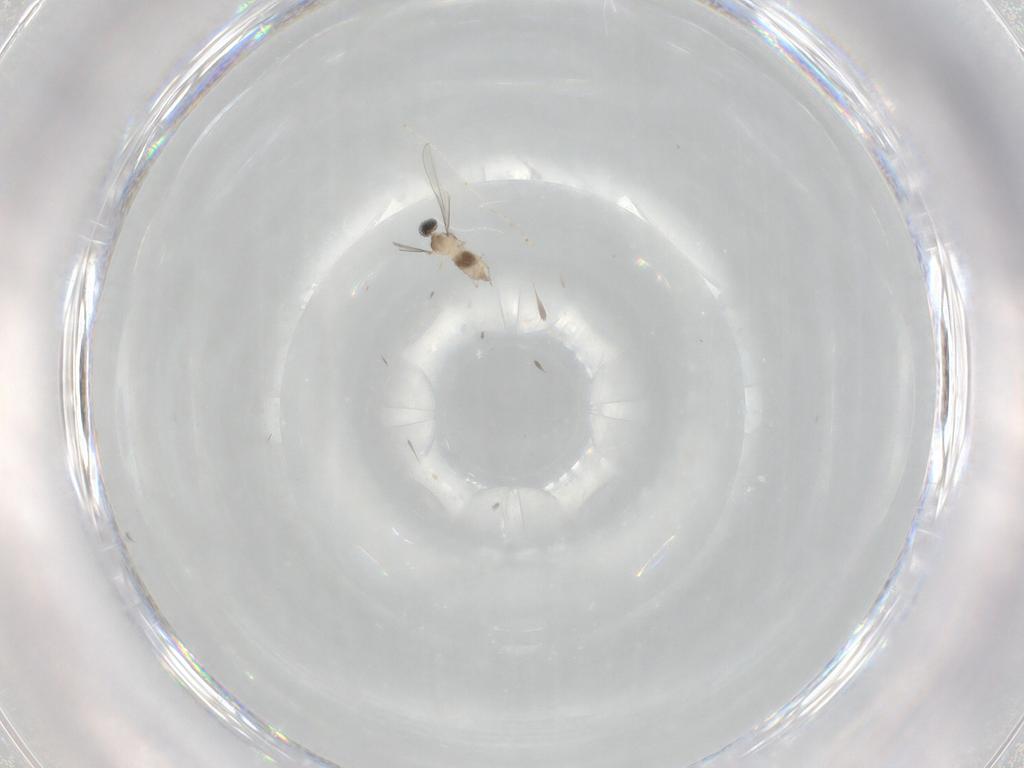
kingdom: Animalia
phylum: Arthropoda
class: Insecta
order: Diptera
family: Cecidomyiidae
